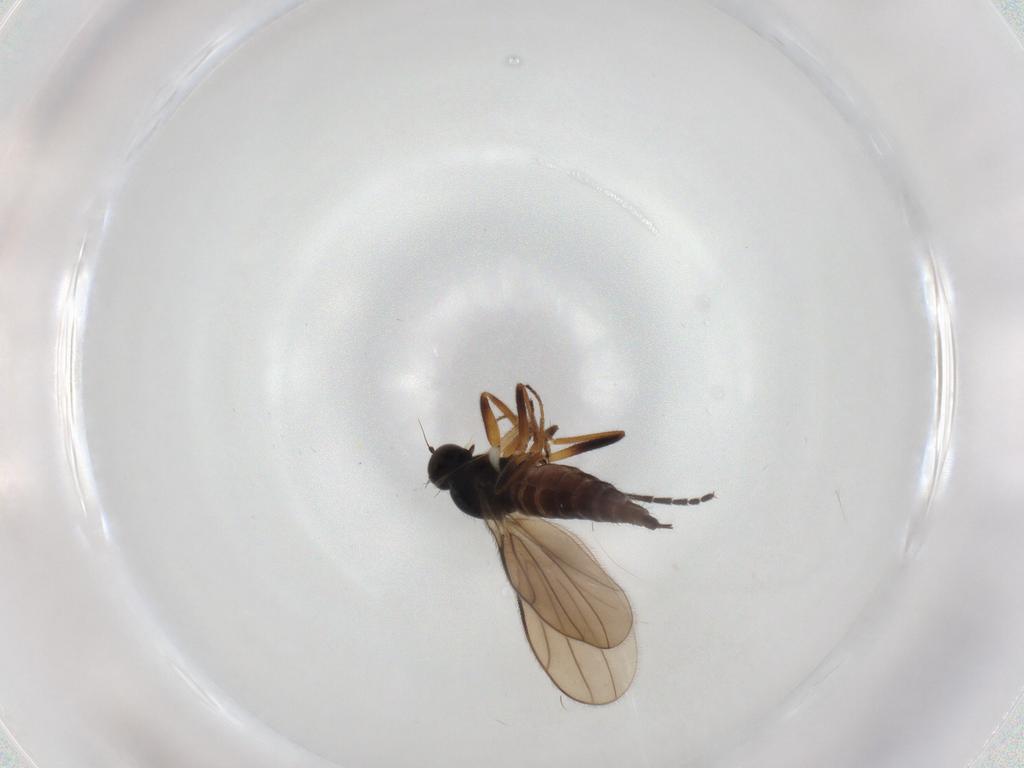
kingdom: Animalia
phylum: Arthropoda
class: Insecta
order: Diptera
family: Hybotidae
